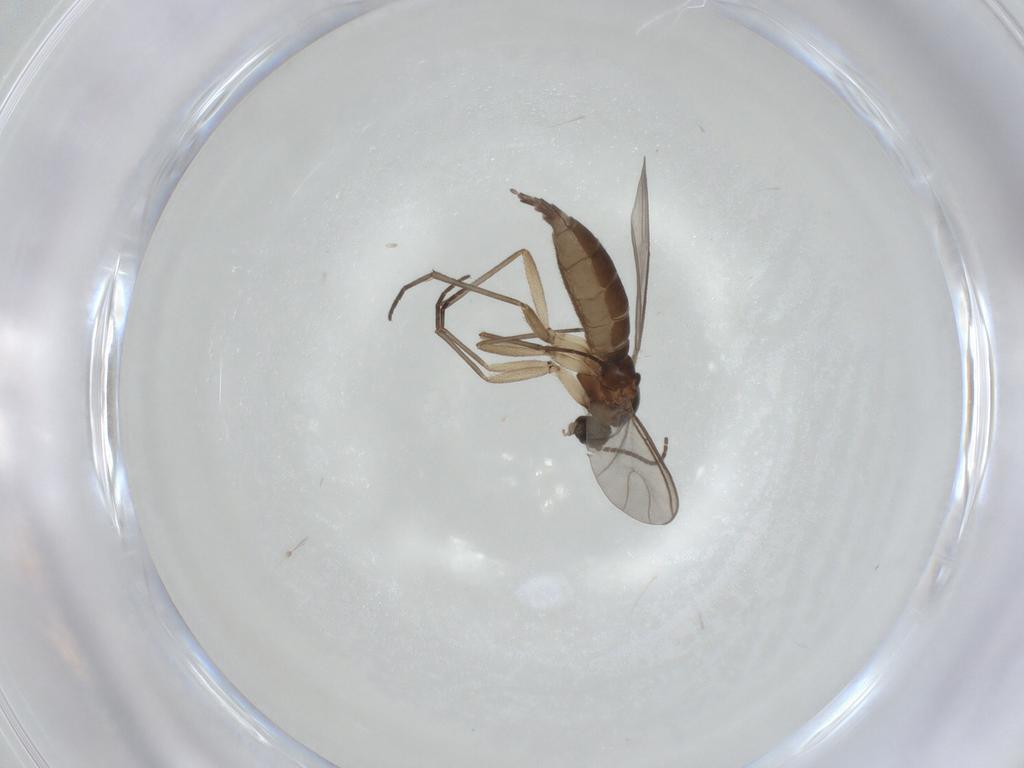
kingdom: Animalia
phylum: Arthropoda
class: Insecta
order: Diptera
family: Sciaridae
